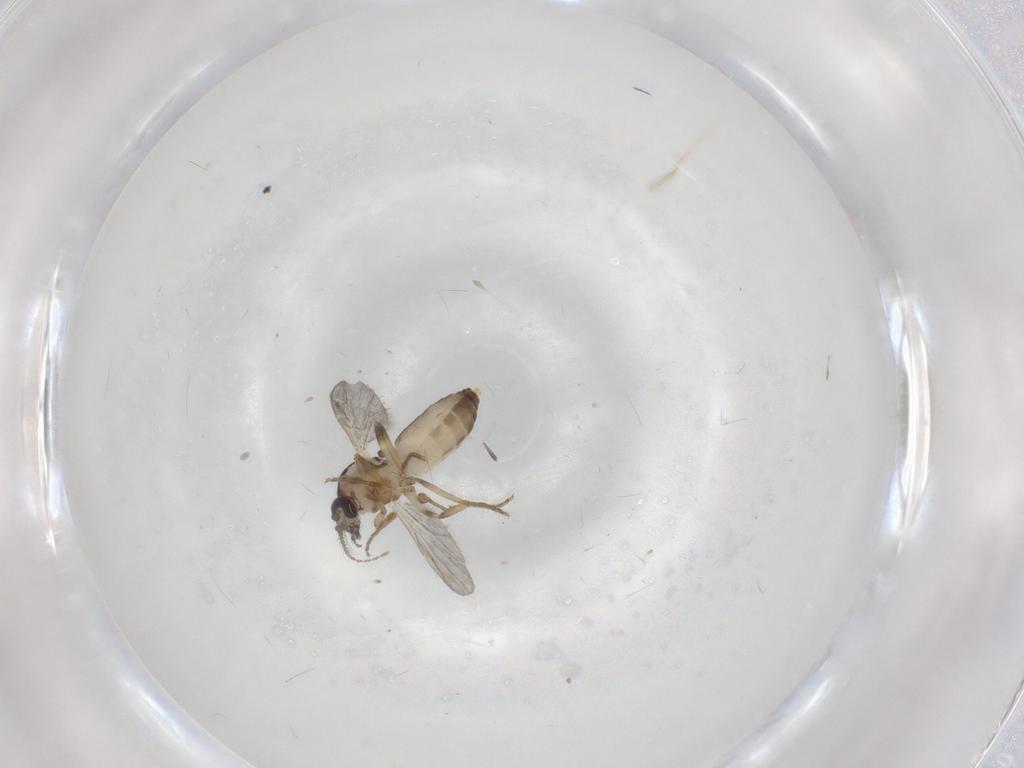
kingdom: Animalia
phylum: Arthropoda
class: Insecta
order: Diptera
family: Ceratopogonidae
